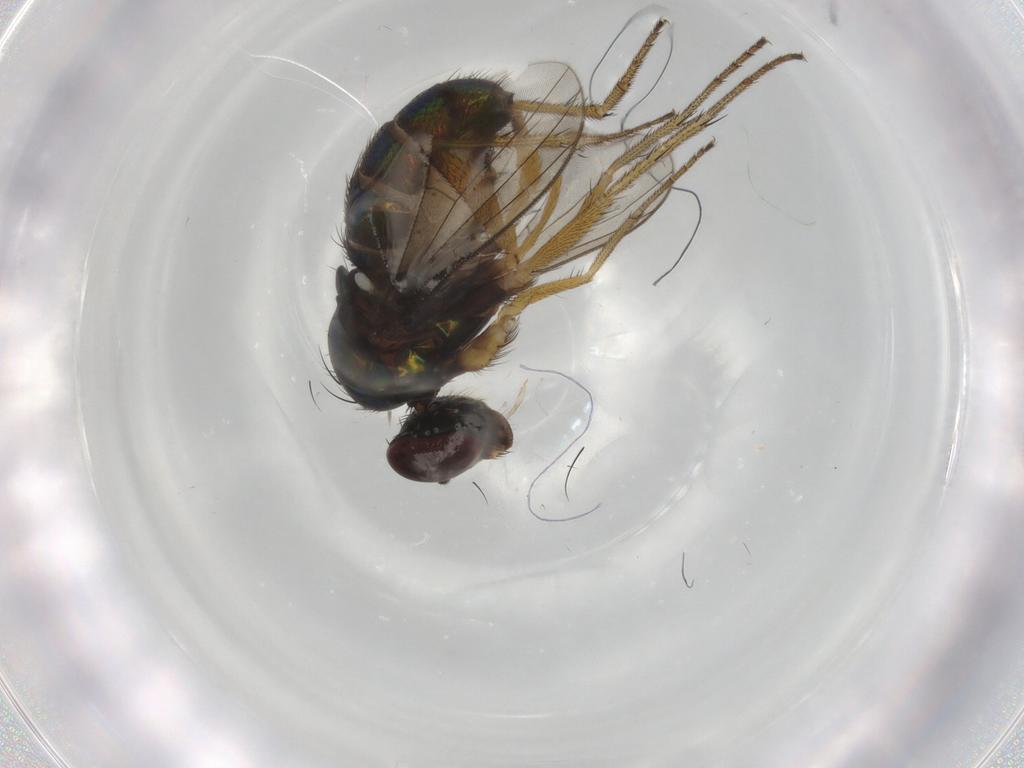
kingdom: Animalia
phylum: Arthropoda
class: Insecta
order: Diptera
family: Dolichopodidae
